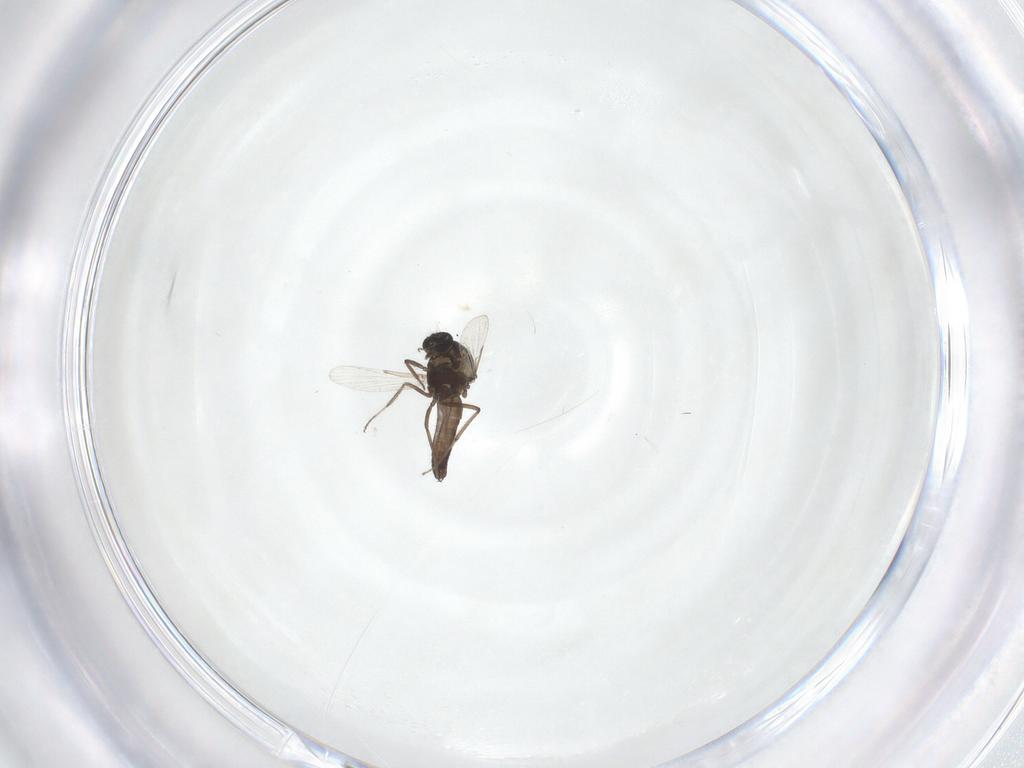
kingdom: Animalia
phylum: Arthropoda
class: Insecta
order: Diptera
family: Ceratopogonidae
